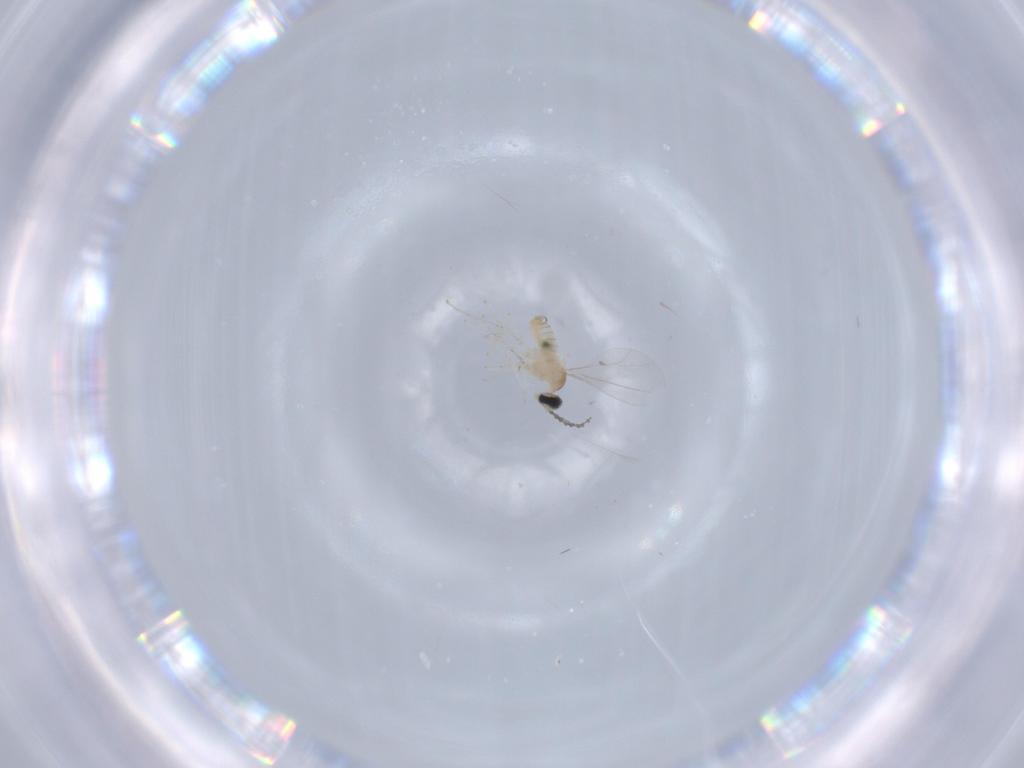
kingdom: Animalia
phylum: Arthropoda
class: Insecta
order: Diptera
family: Cecidomyiidae
